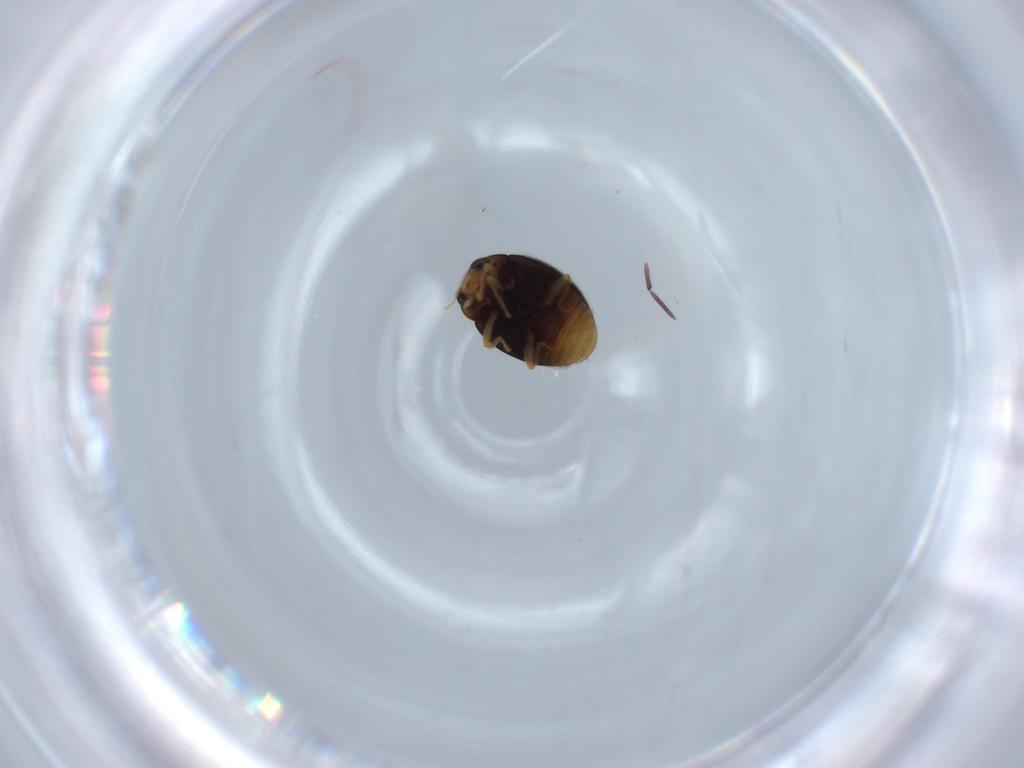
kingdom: Animalia
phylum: Arthropoda
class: Insecta
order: Coleoptera
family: Coccinellidae
